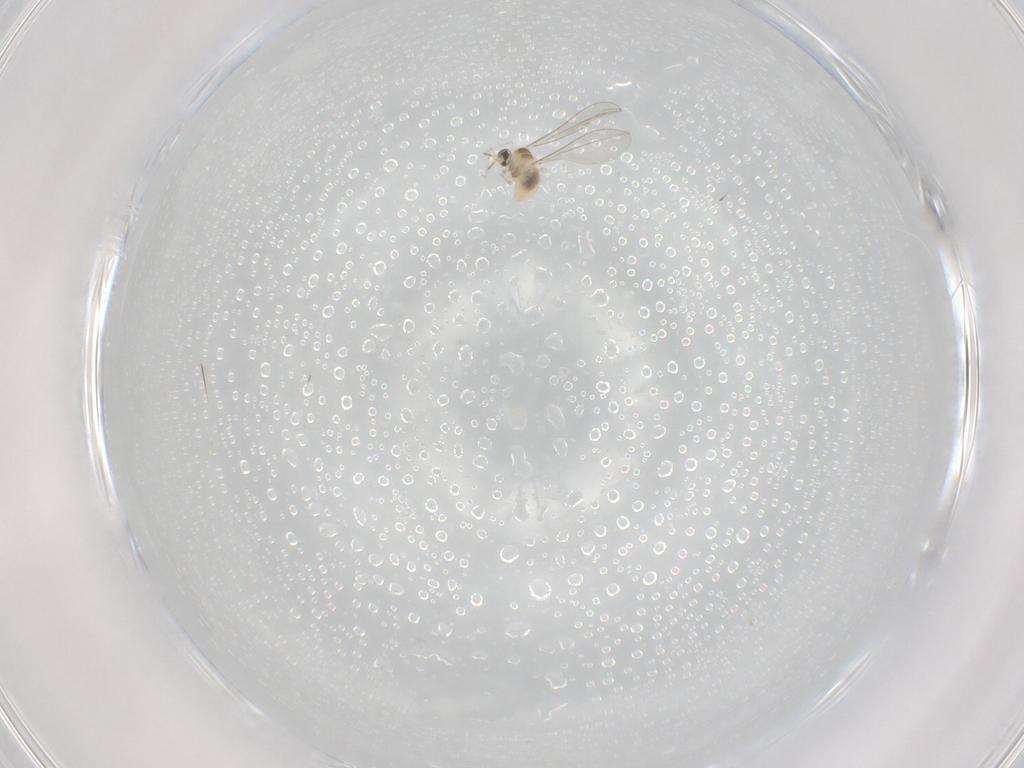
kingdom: Animalia
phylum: Arthropoda
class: Insecta
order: Diptera
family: Cecidomyiidae
